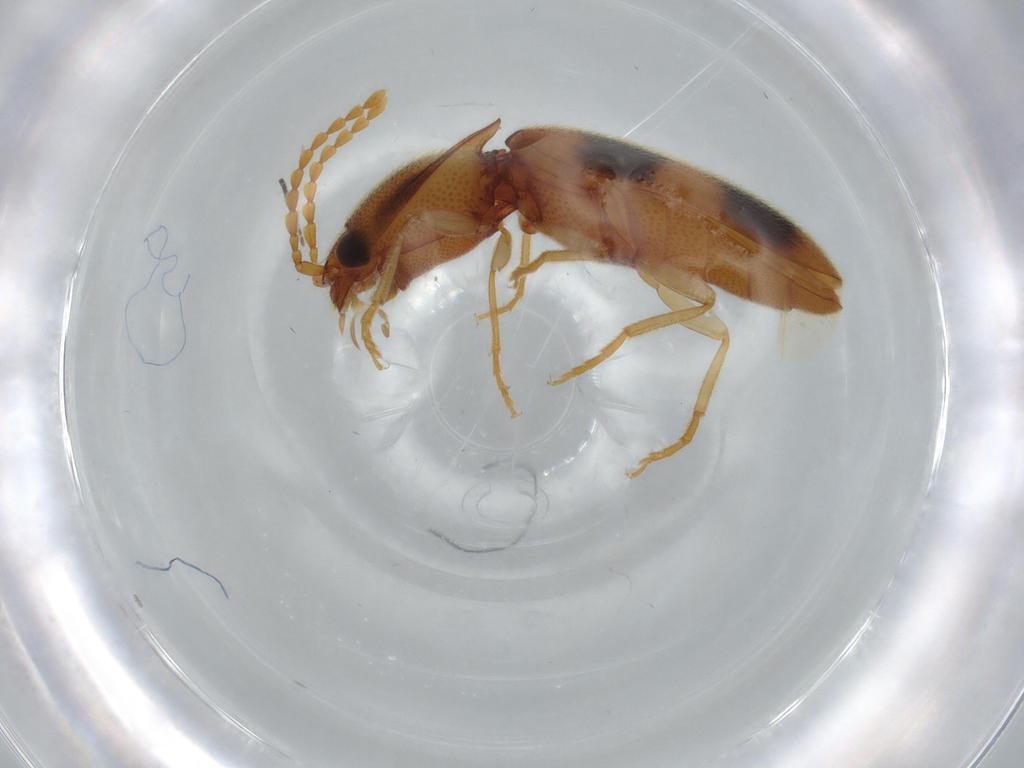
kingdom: Animalia
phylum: Arthropoda
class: Insecta
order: Coleoptera
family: Elateridae
